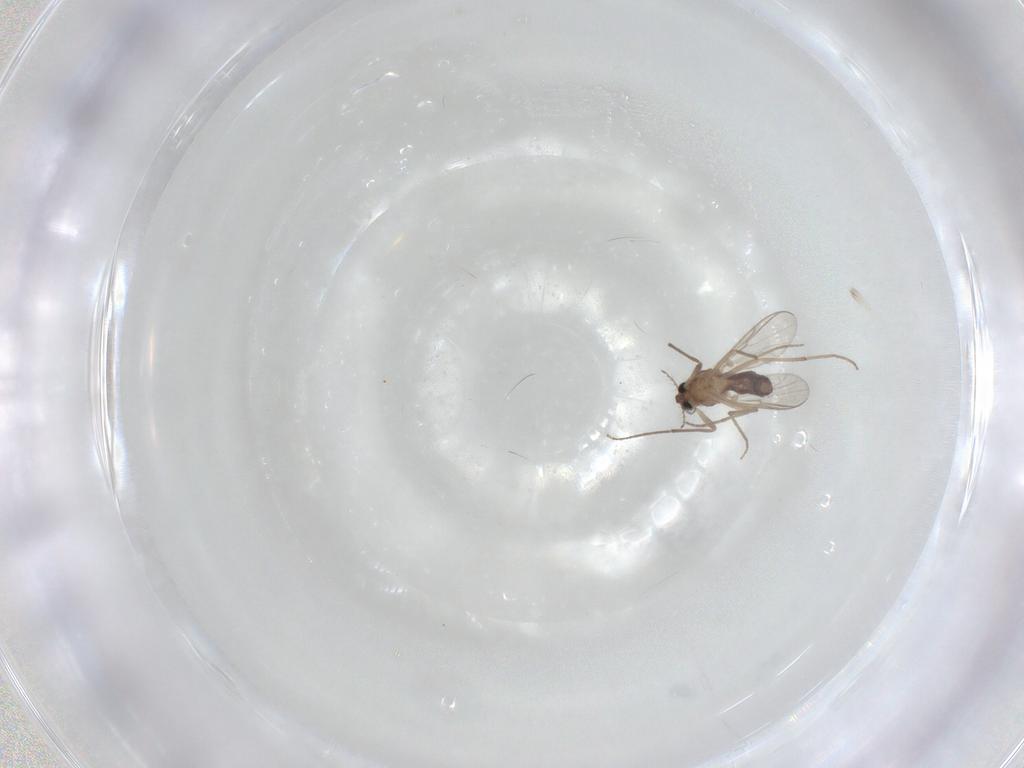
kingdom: Animalia
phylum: Arthropoda
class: Insecta
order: Diptera
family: Chironomidae
